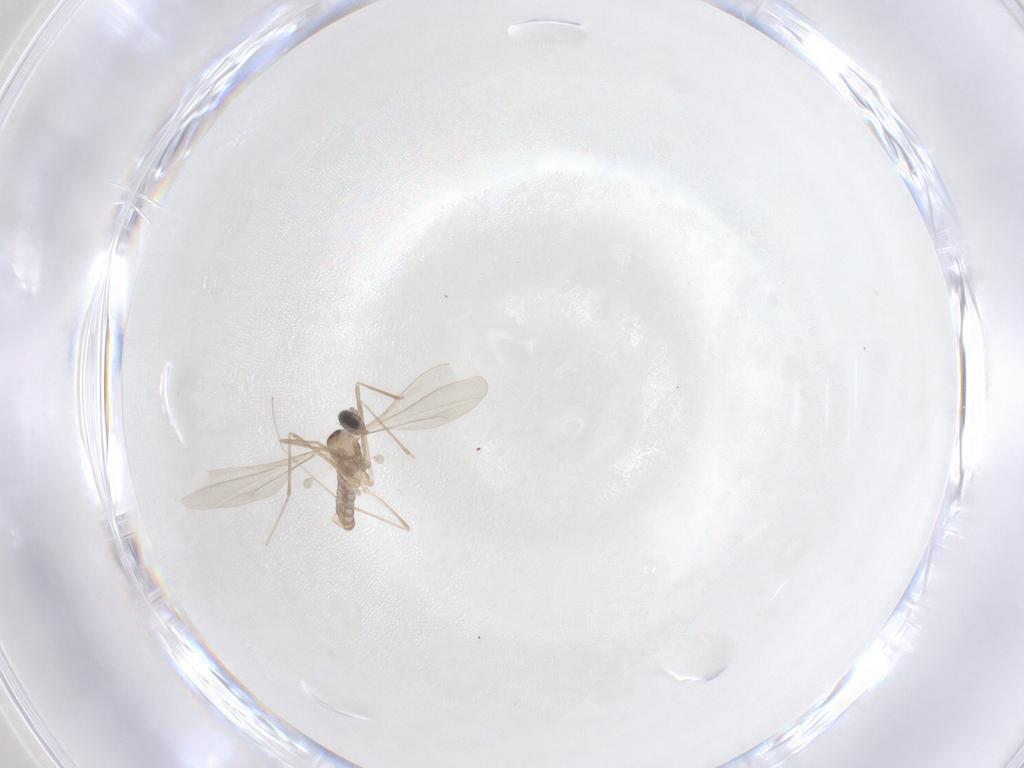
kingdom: Animalia
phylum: Arthropoda
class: Insecta
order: Diptera
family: Cecidomyiidae
